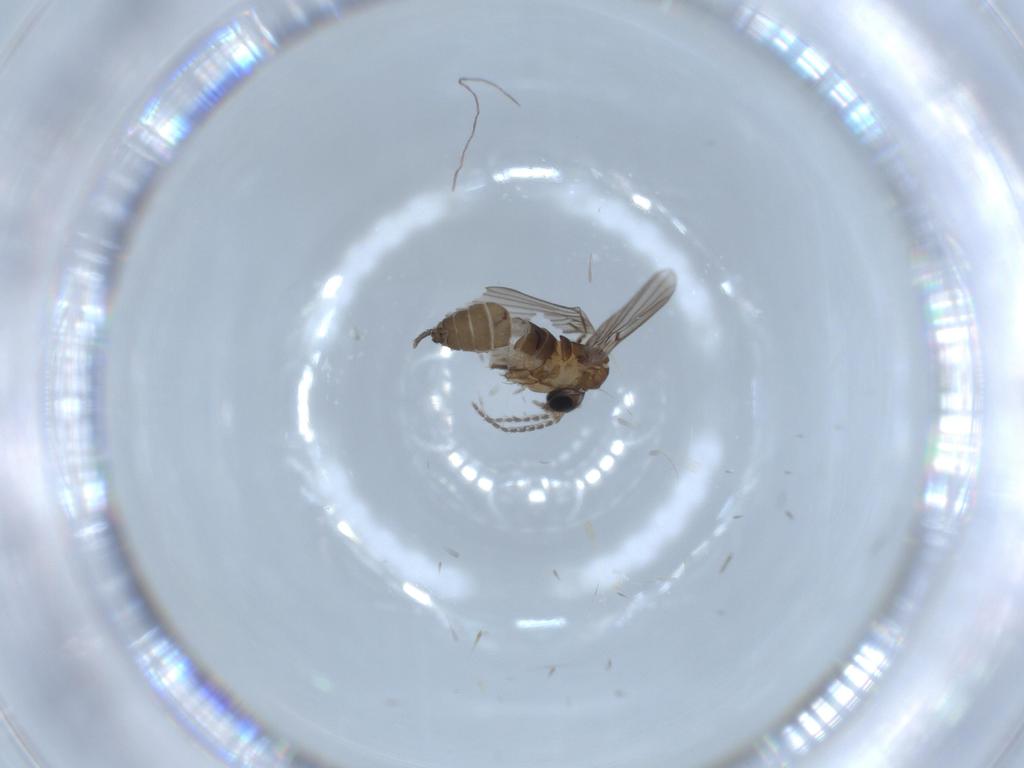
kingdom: Animalia
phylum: Arthropoda
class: Insecta
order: Diptera
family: Psychodidae
